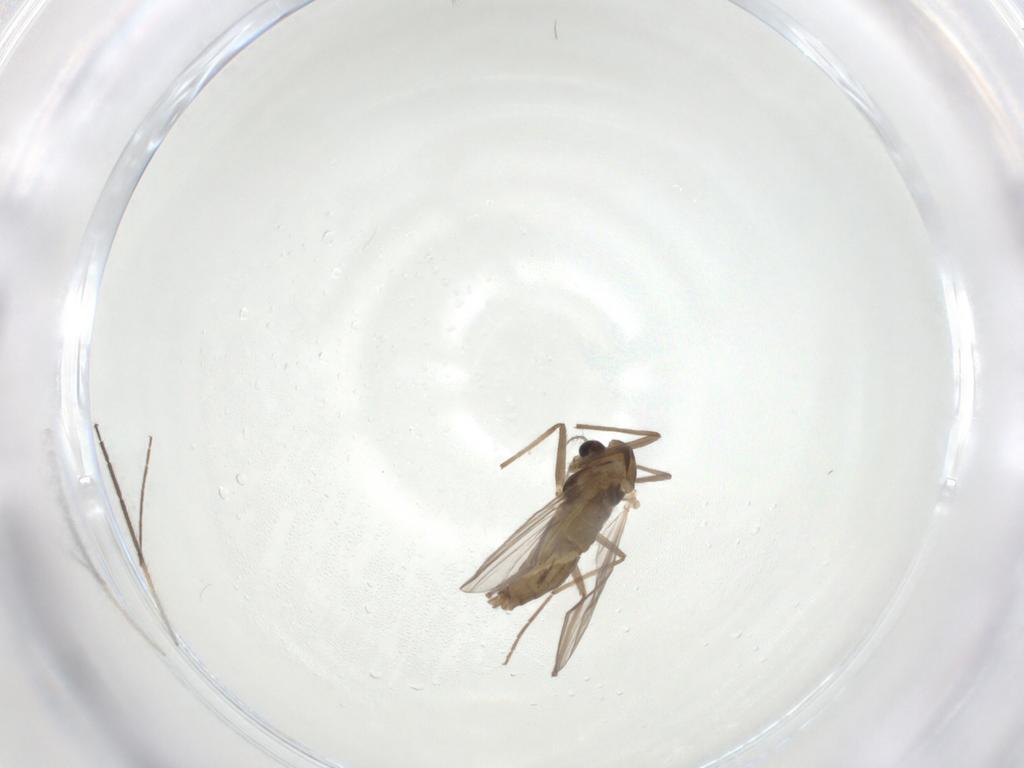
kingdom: Animalia
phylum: Arthropoda
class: Insecta
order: Diptera
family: Chironomidae
